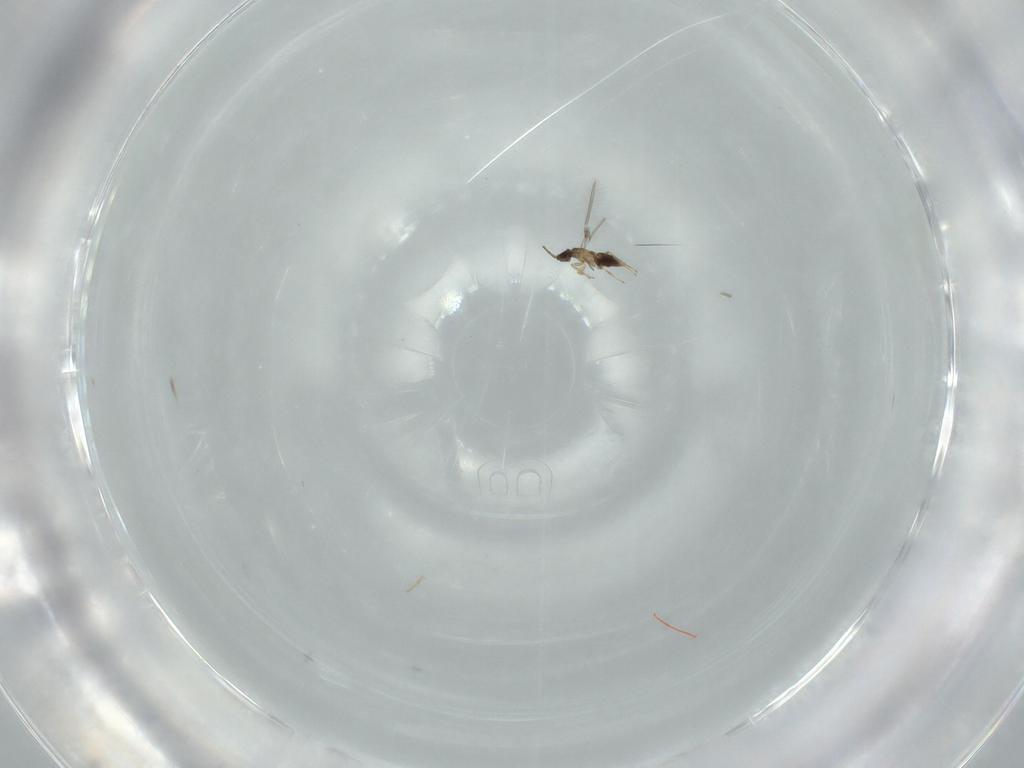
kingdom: Animalia
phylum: Arthropoda
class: Insecta
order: Hymenoptera
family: Mymaridae
